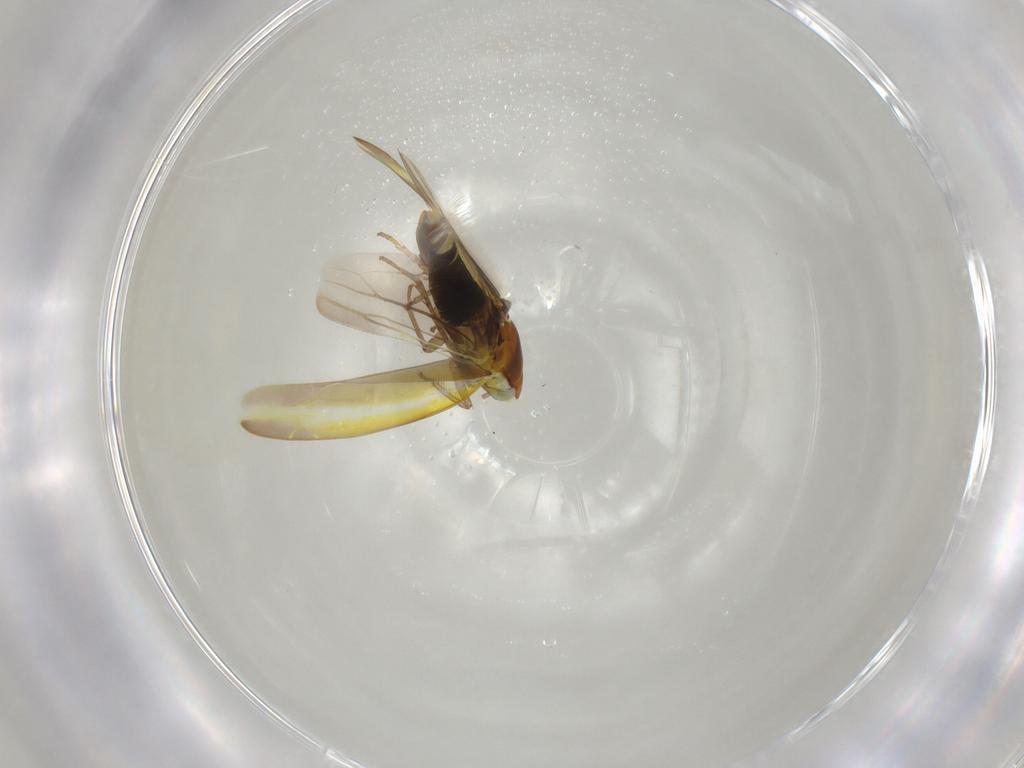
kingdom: Animalia
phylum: Arthropoda
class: Insecta
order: Hemiptera
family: Cicadellidae
